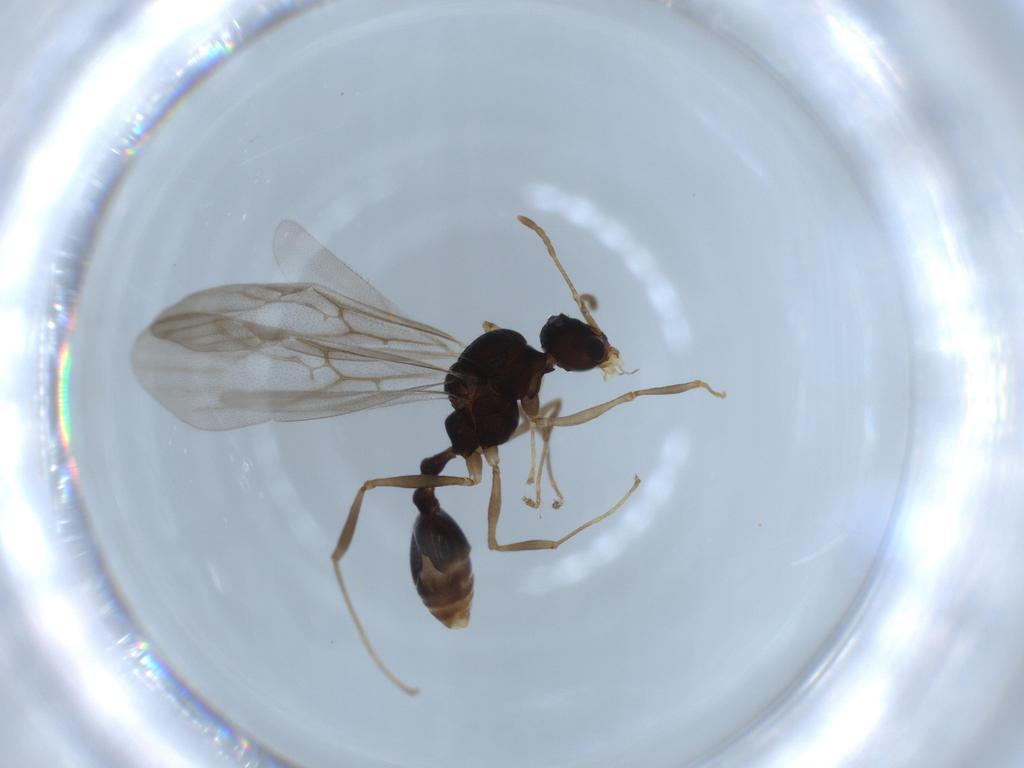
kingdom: Animalia
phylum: Arthropoda
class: Insecta
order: Hymenoptera
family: Formicidae
